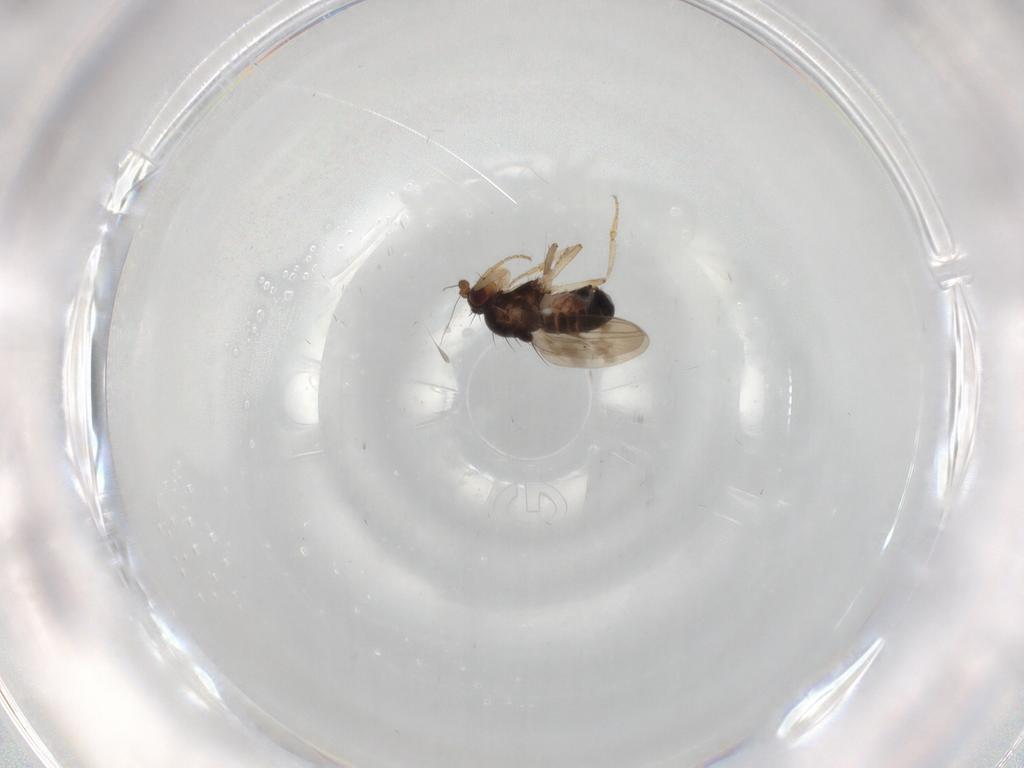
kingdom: Animalia
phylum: Arthropoda
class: Insecta
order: Diptera
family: Sphaeroceridae
